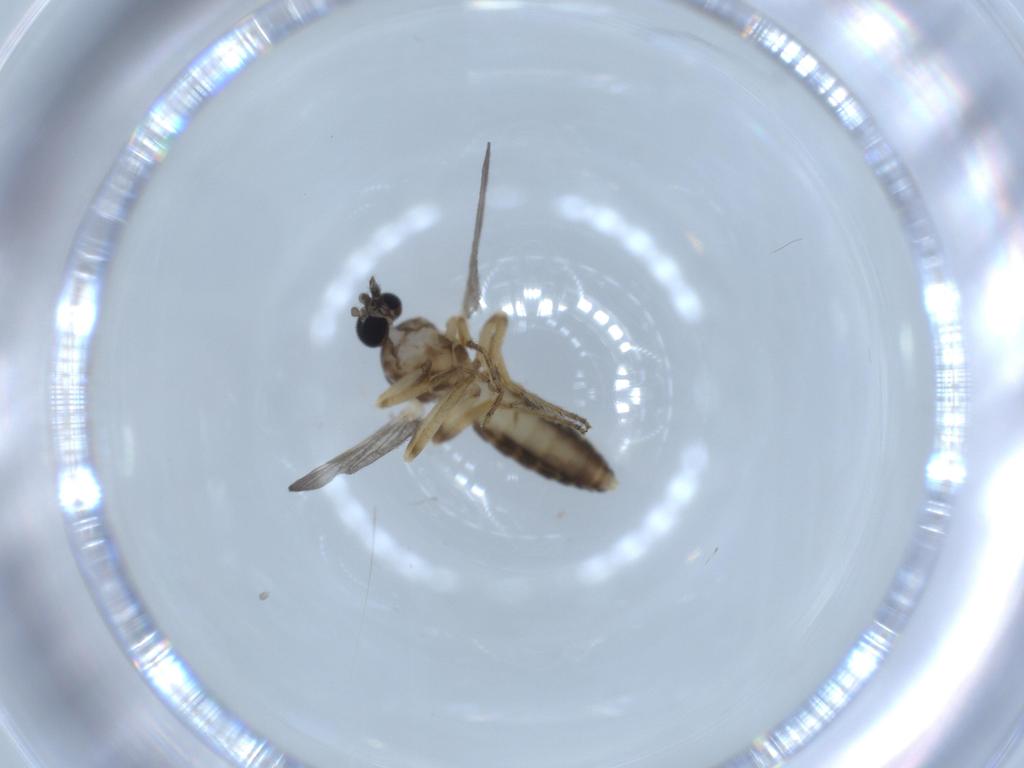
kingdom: Animalia
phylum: Arthropoda
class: Insecta
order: Diptera
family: Ceratopogonidae
